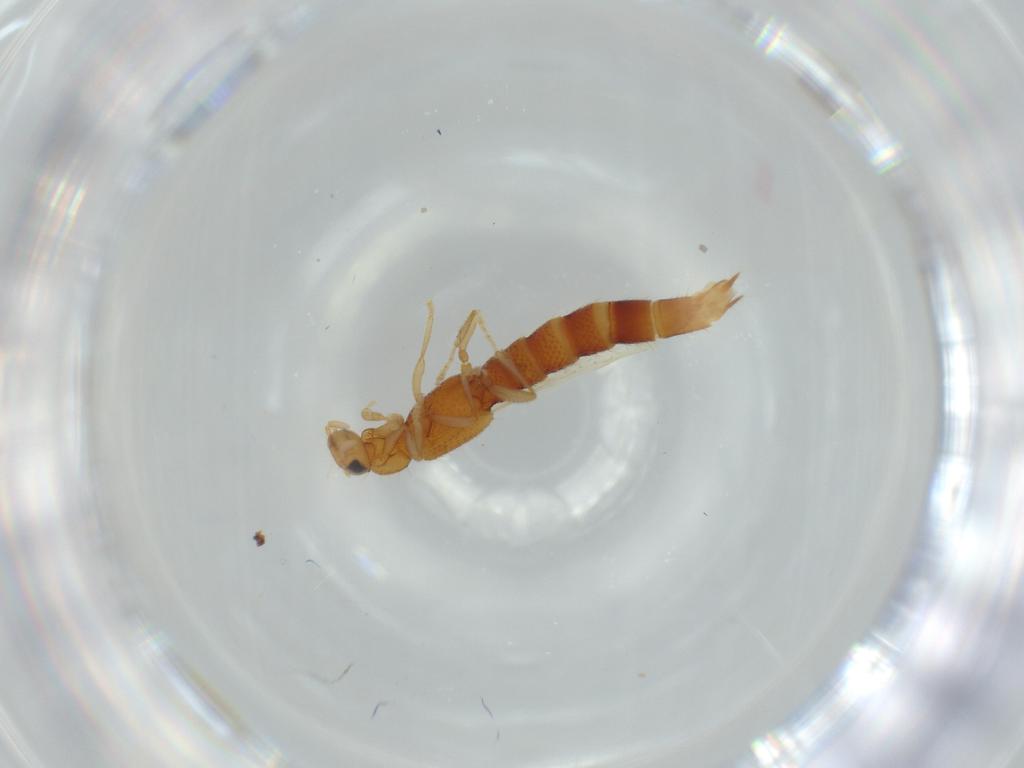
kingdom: Animalia
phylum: Arthropoda
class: Insecta
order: Coleoptera
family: Staphylinidae
